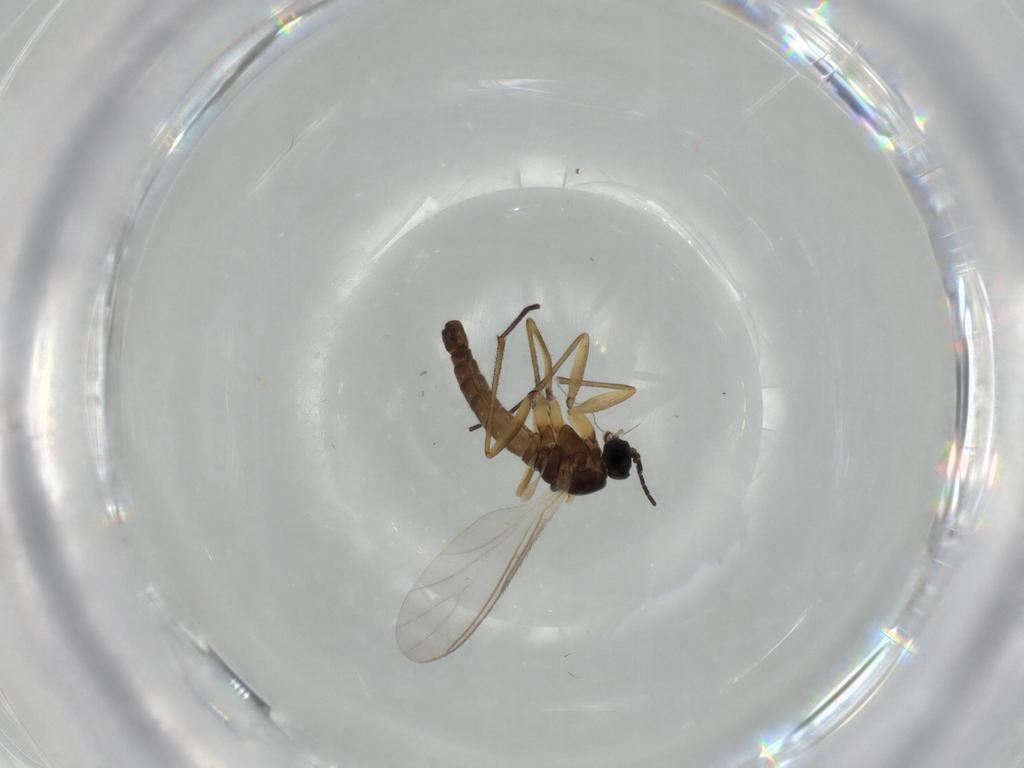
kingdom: Animalia
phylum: Arthropoda
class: Insecta
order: Diptera
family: Sciaridae
